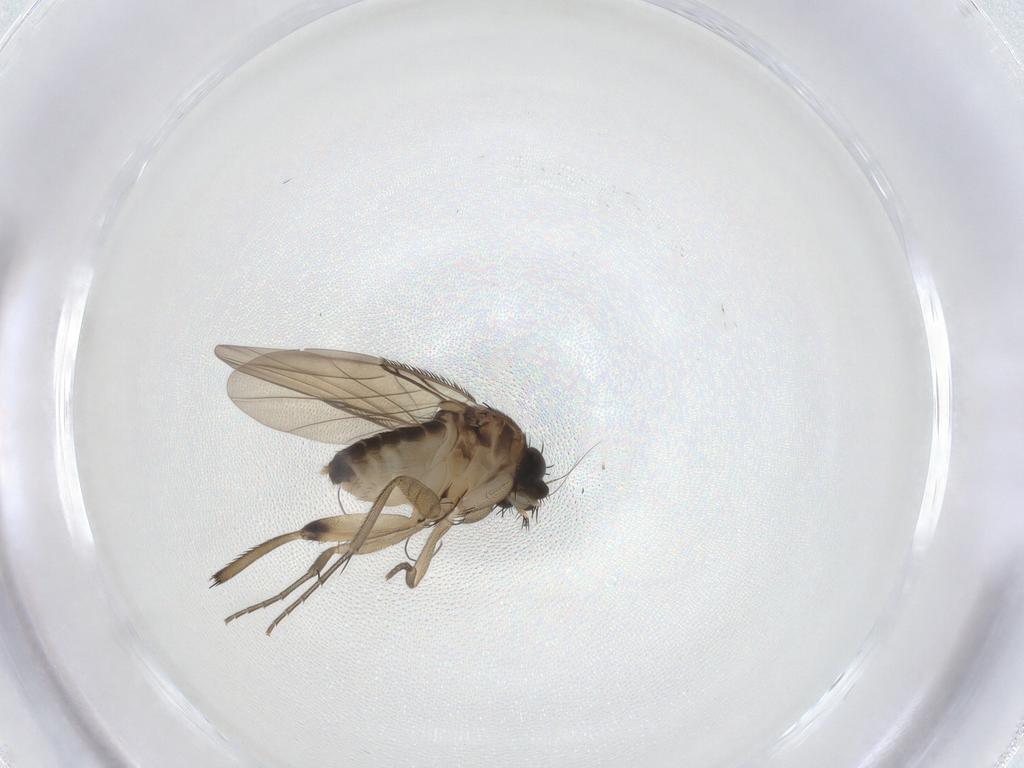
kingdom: Animalia
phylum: Arthropoda
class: Insecta
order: Diptera
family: Phoridae
